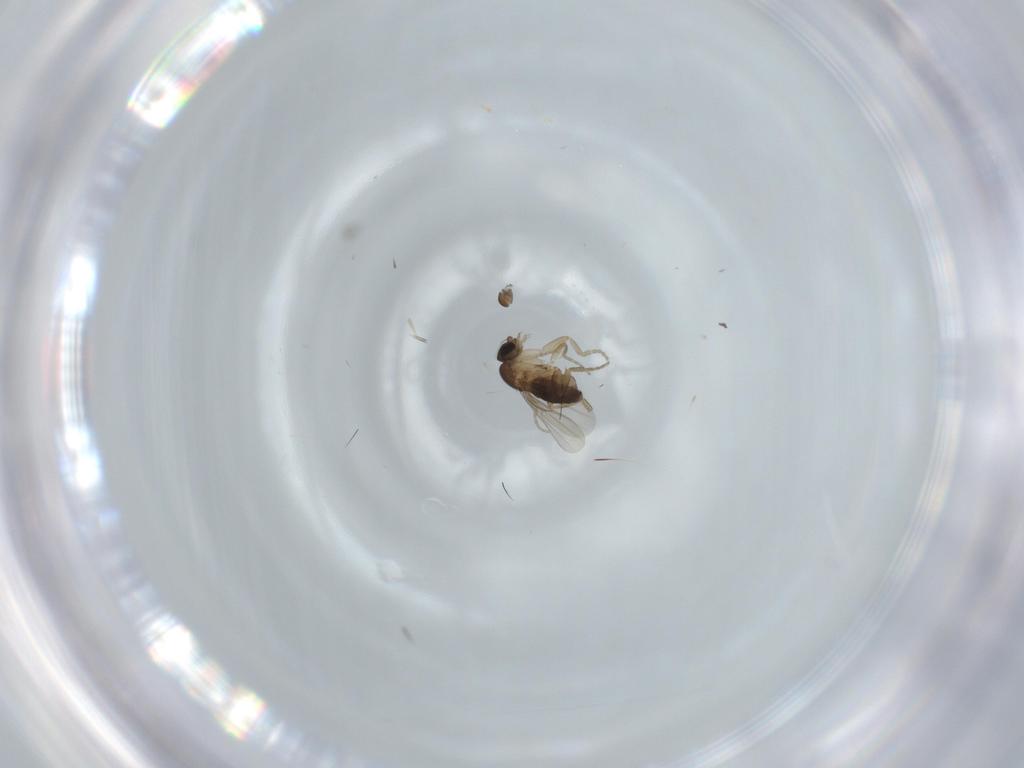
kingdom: Animalia
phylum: Arthropoda
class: Insecta
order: Diptera
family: Phoridae
